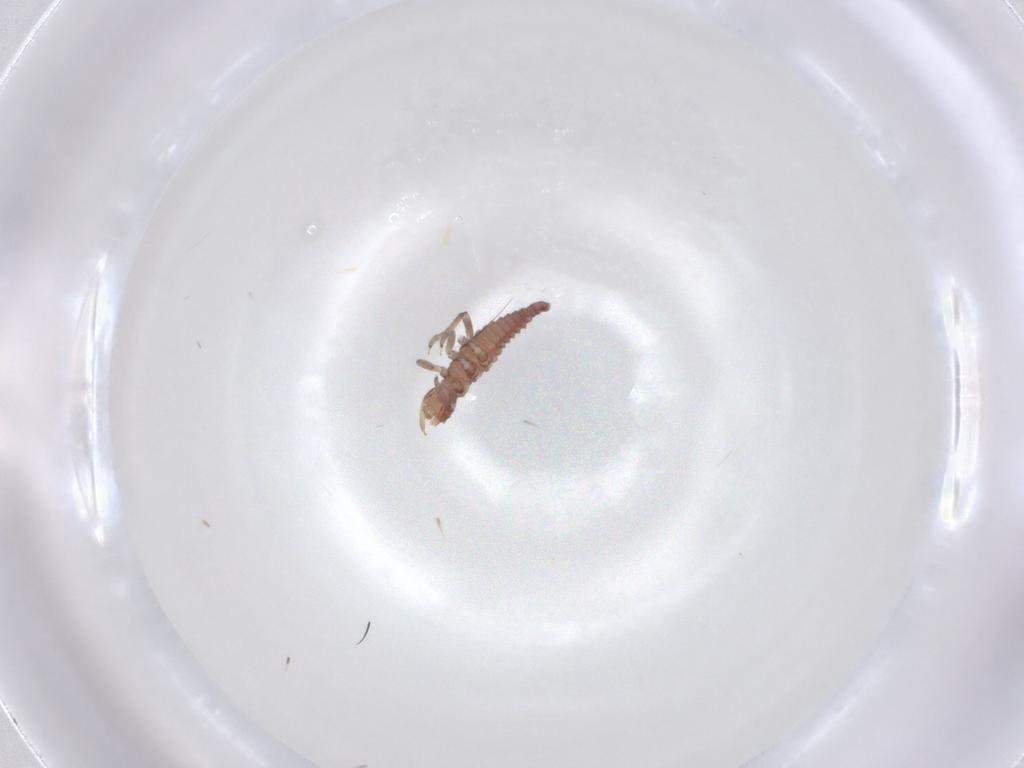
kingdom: Animalia
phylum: Arthropoda
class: Insecta
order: Neuroptera
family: Hemerobiidae
